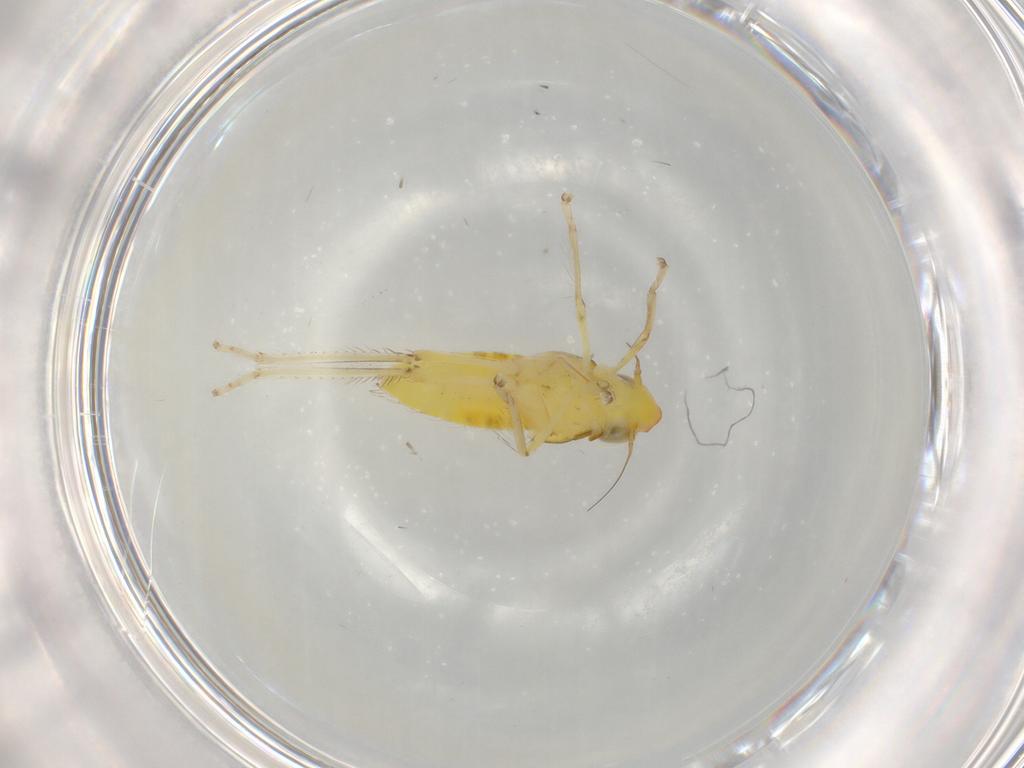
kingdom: Animalia
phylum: Arthropoda
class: Insecta
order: Hemiptera
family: Cicadellidae
